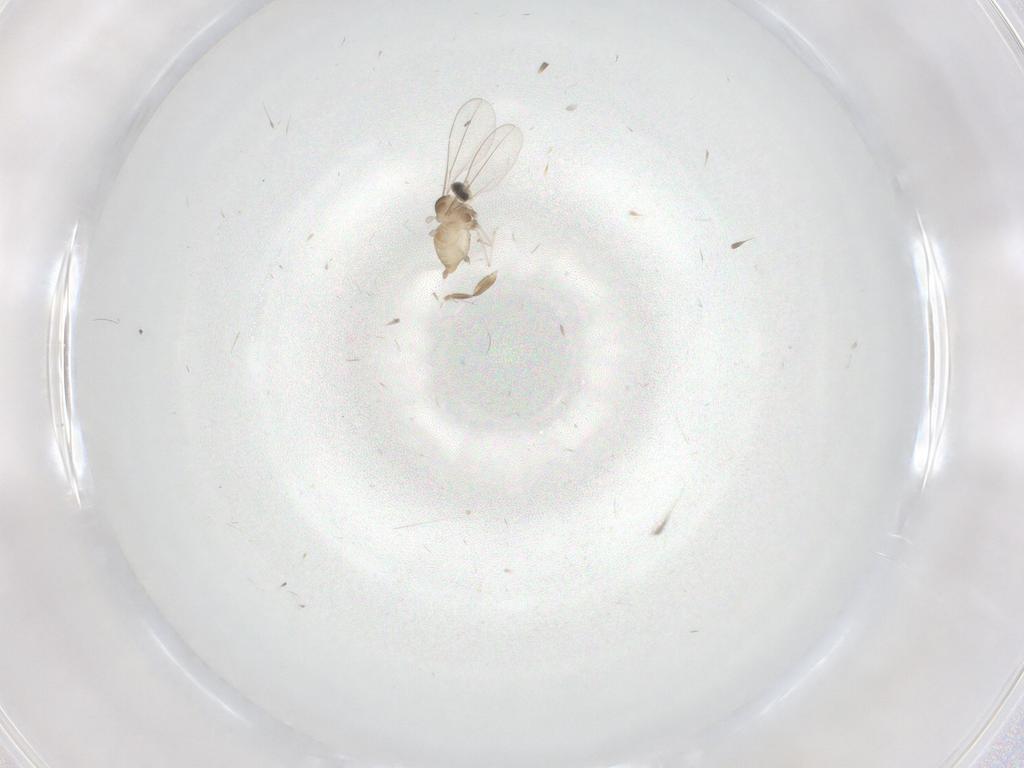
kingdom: Animalia
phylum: Arthropoda
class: Insecta
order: Diptera
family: Cecidomyiidae
